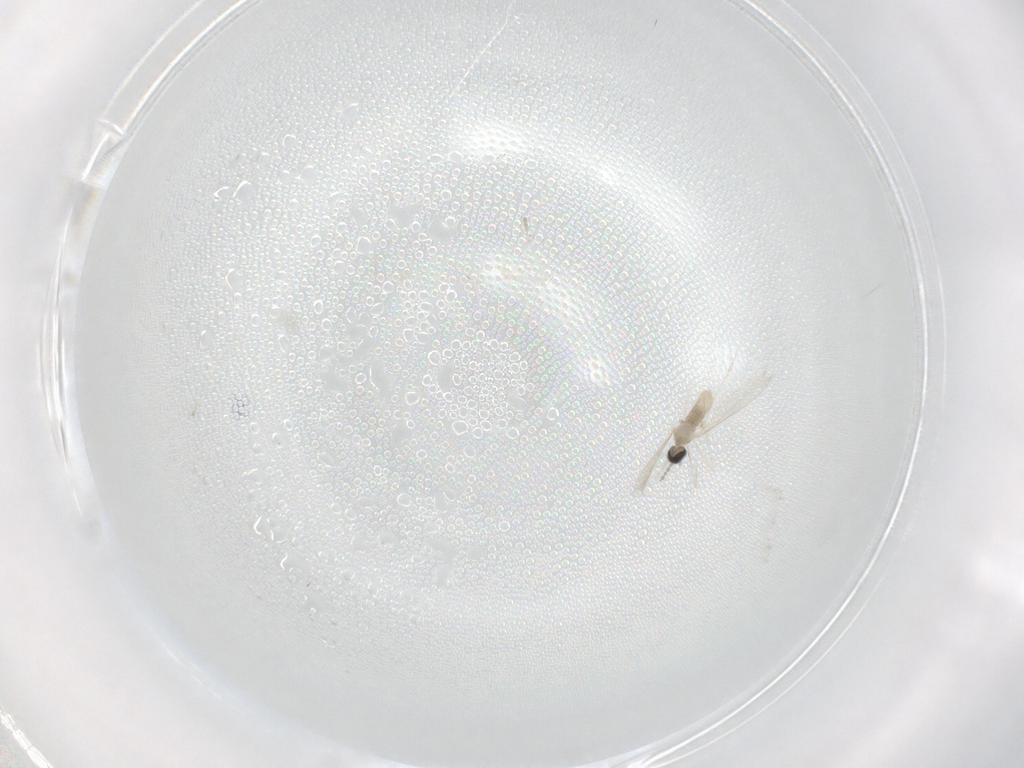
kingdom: Animalia
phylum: Arthropoda
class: Insecta
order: Diptera
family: Cecidomyiidae
